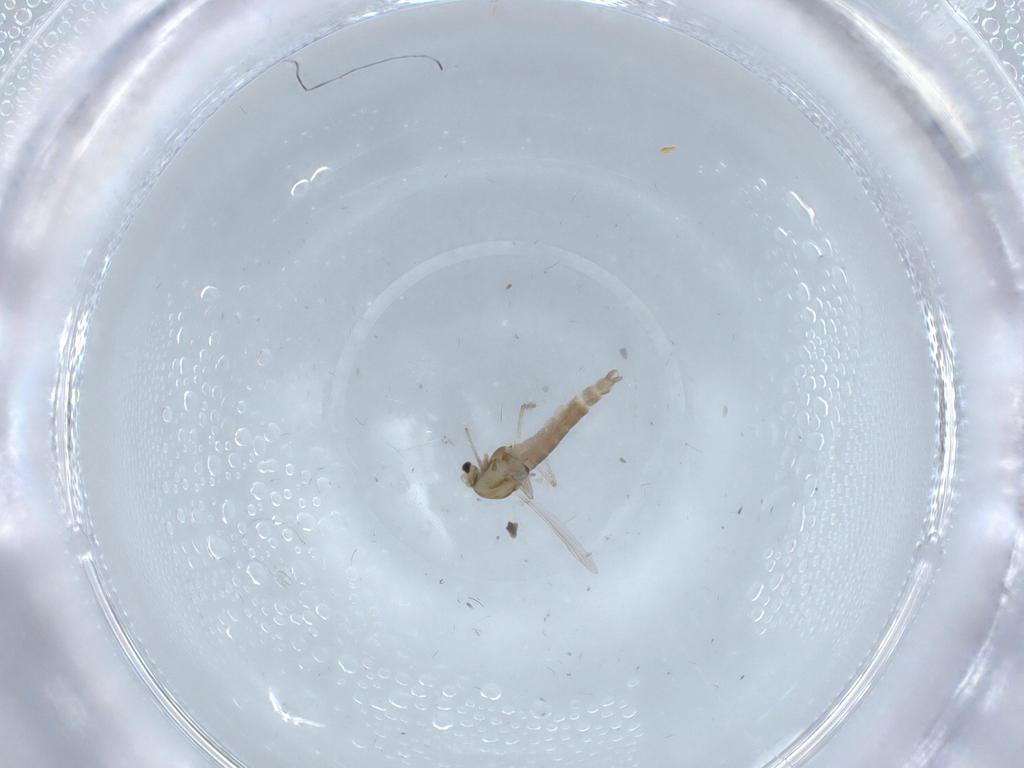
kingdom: Animalia
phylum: Arthropoda
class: Insecta
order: Diptera
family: Chironomidae
